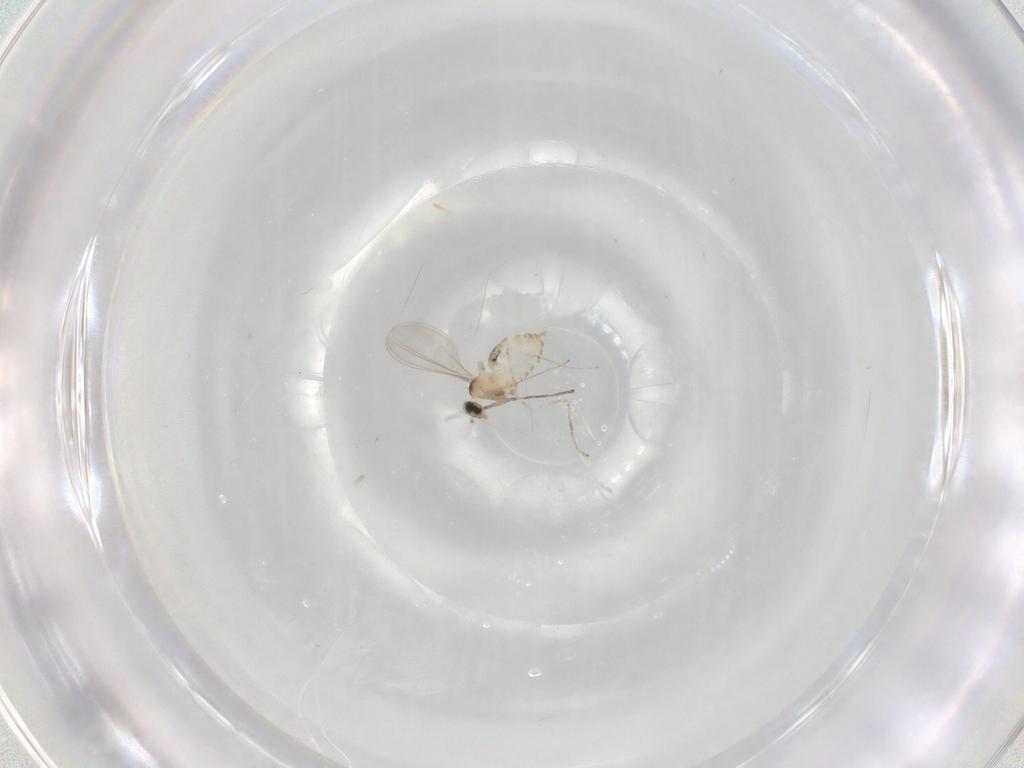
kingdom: Animalia
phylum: Arthropoda
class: Insecta
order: Diptera
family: Cecidomyiidae
